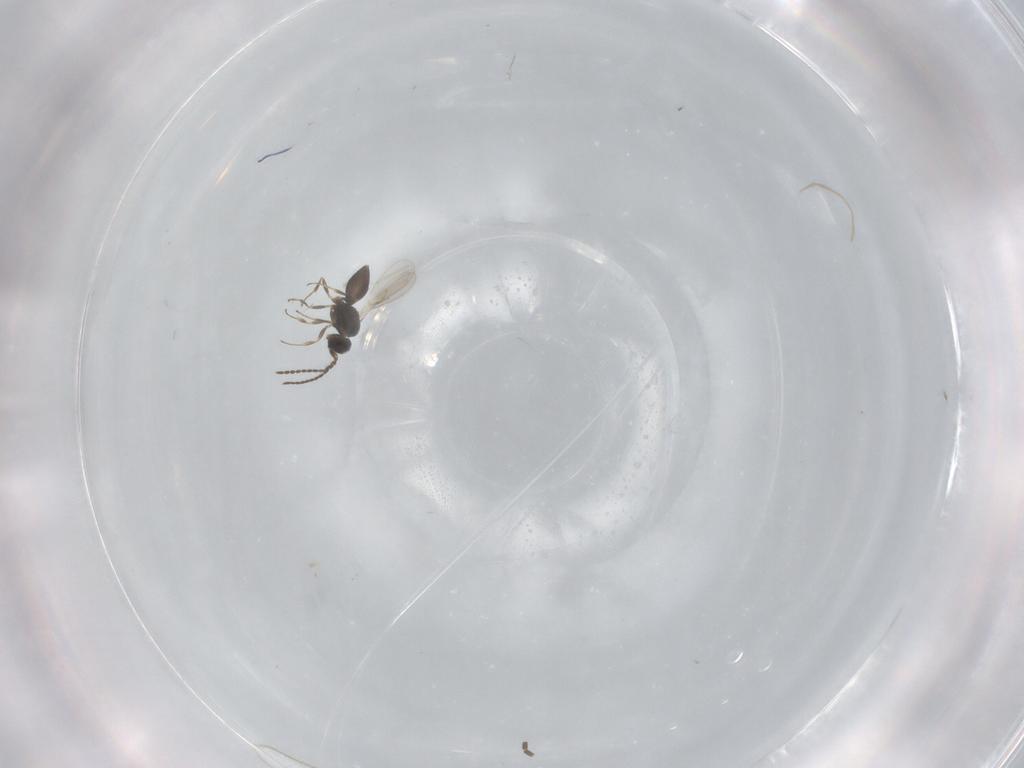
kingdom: Animalia
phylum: Arthropoda
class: Insecta
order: Hymenoptera
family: Scelionidae
